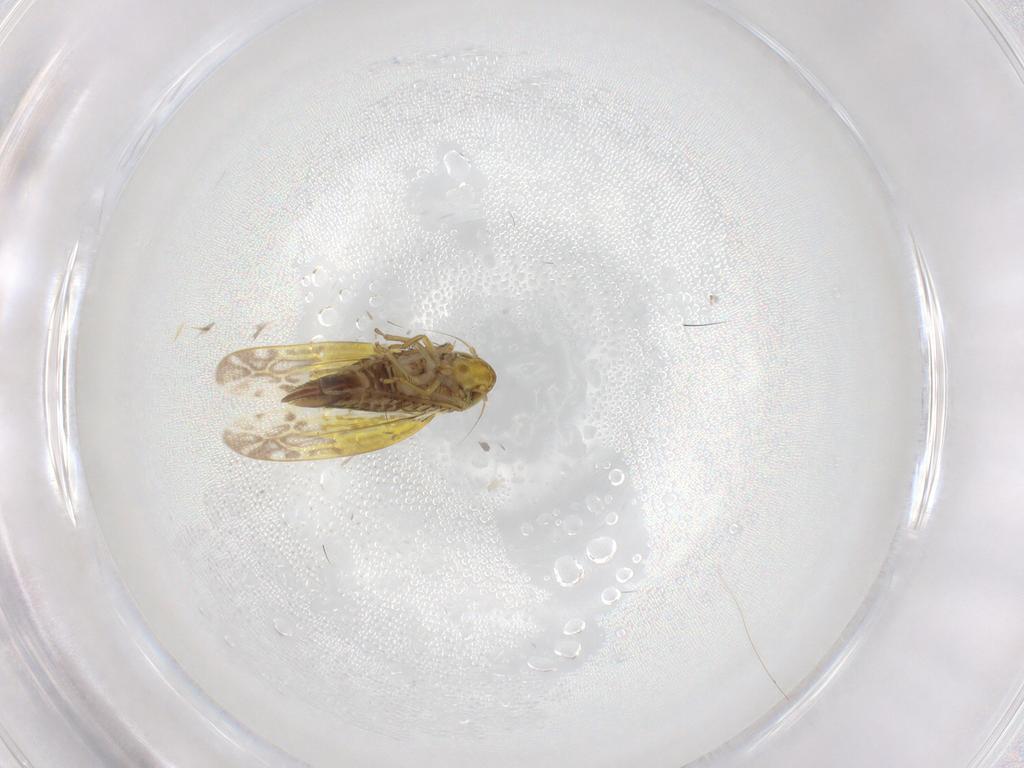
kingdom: Animalia
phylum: Arthropoda
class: Insecta
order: Hemiptera
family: Cicadellidae
